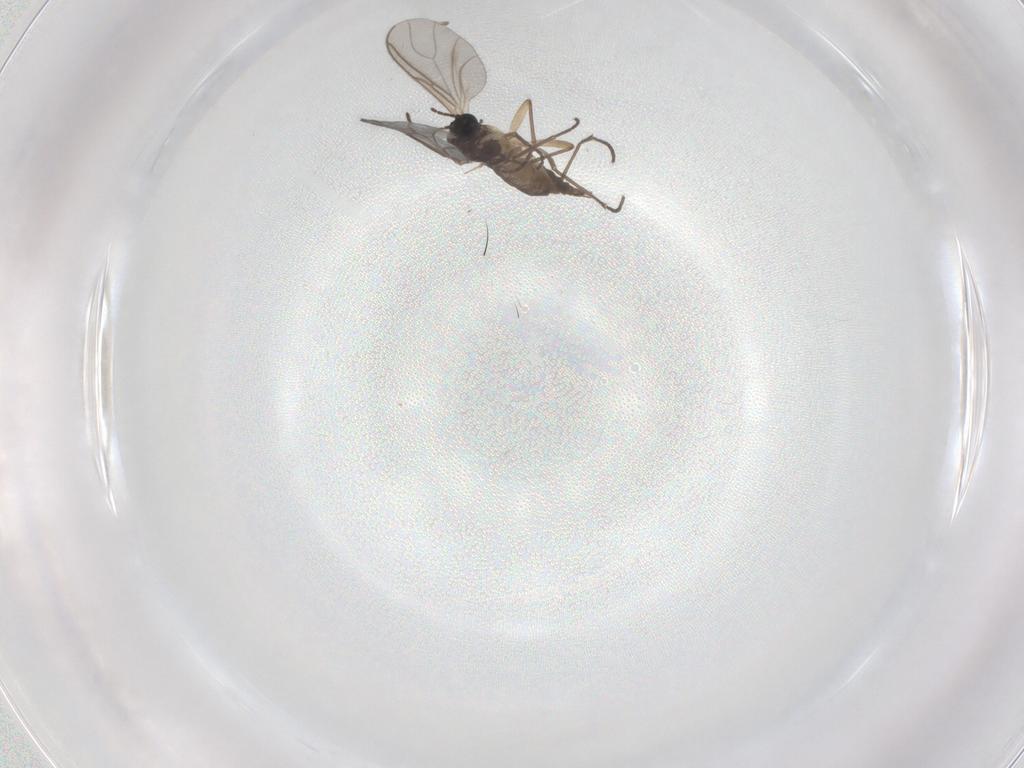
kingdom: Animalia
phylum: Arthropoda
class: Insecta
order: Diptera
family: Sciaridae
